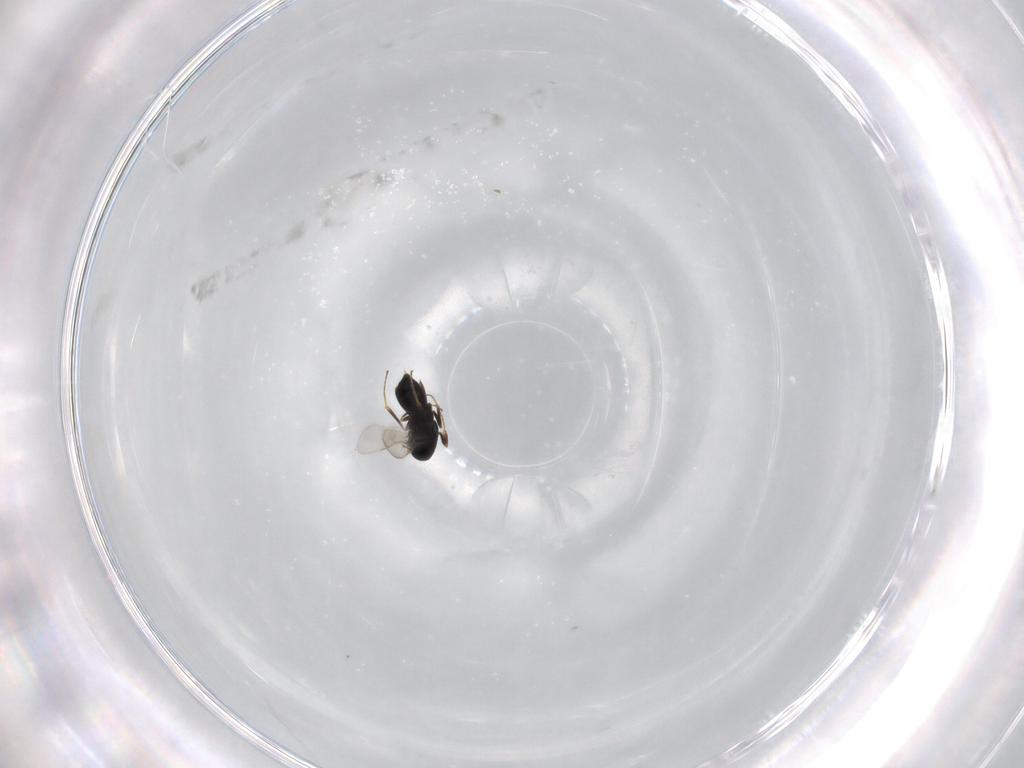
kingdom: Animalia
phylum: Arthropoda
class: Insecta
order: Hymenoptera
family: Scelionidae
